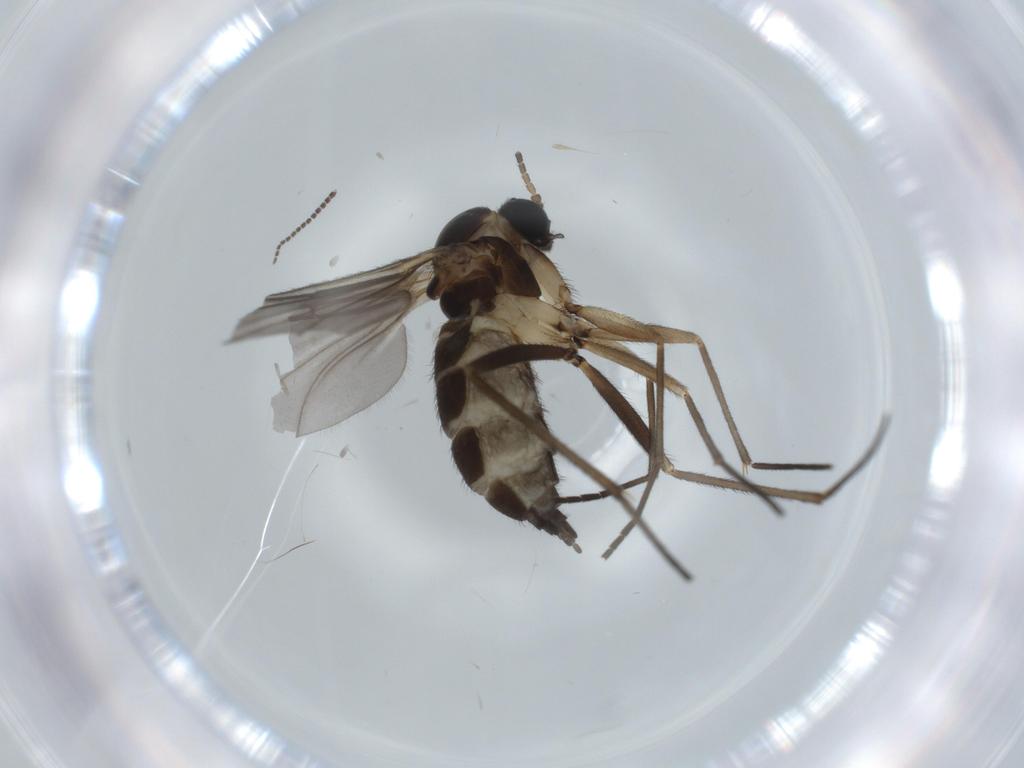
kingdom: Animalia
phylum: Arthropoda
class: Insecta
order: Diptera
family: Sciaridae
